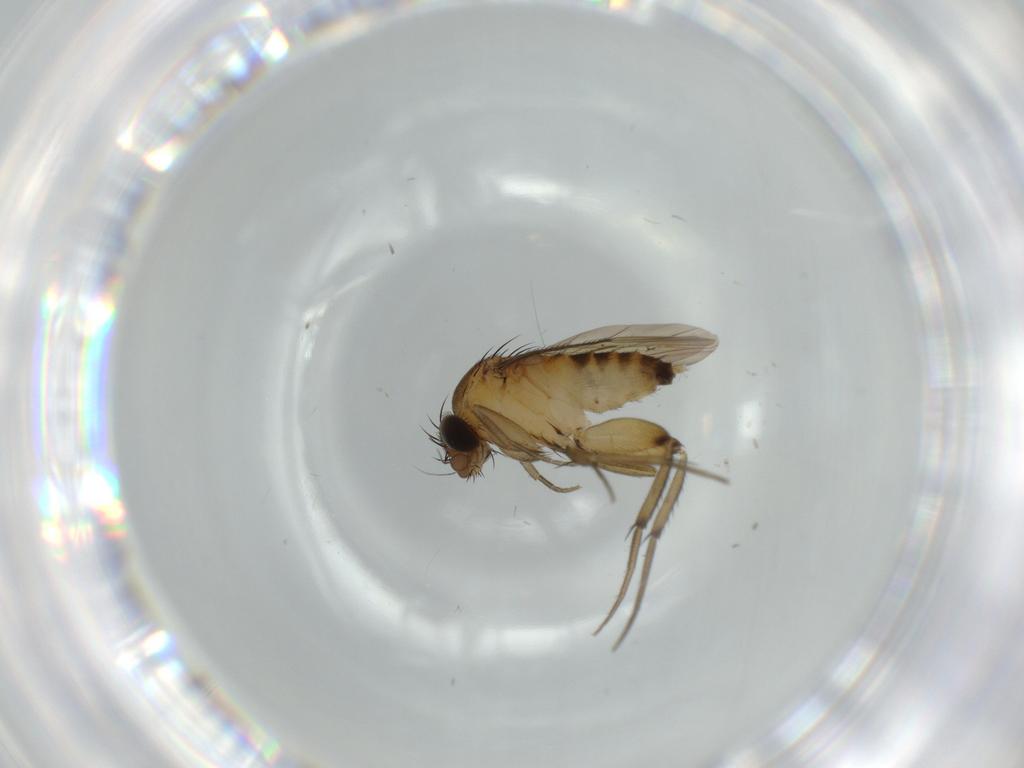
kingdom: Animalia
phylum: Arthropoda
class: Insecta
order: Diptera
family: Phoridae
